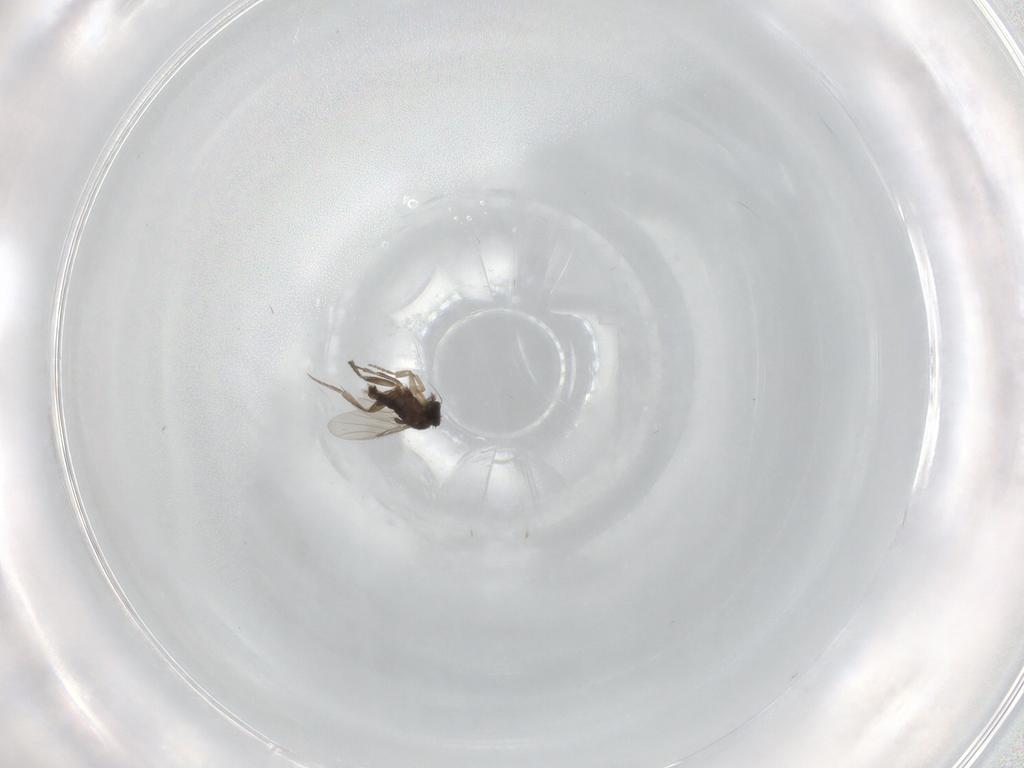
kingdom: Animalia
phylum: Arthropoda
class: Insecta
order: Diptera
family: Phoridae
